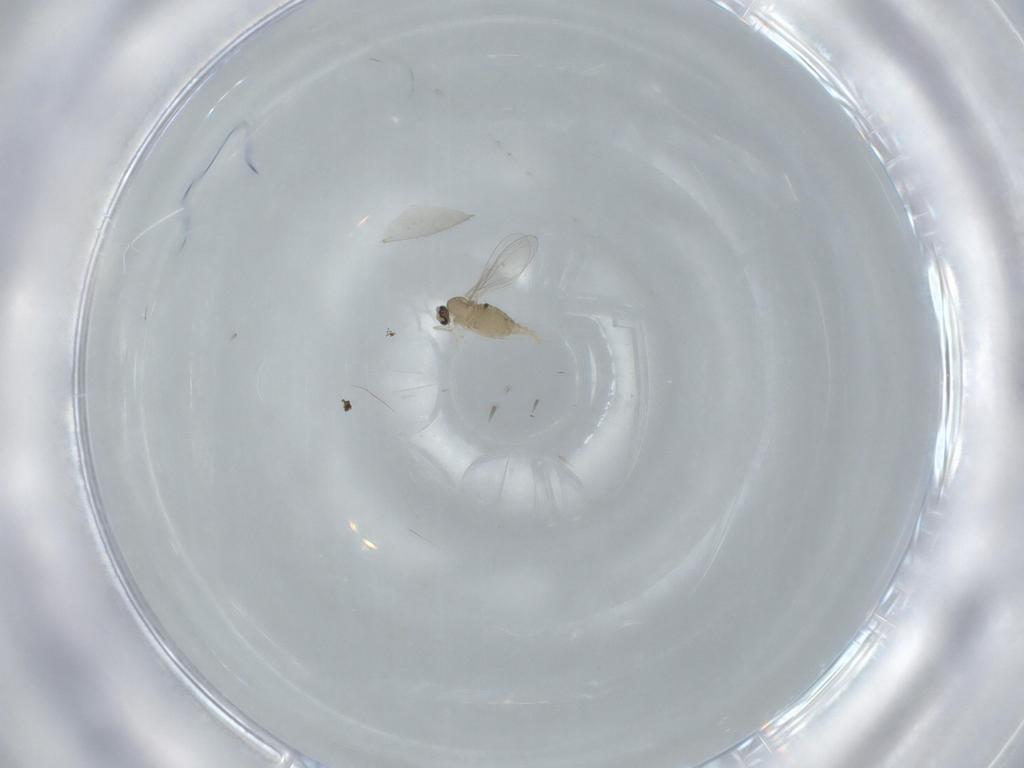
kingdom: Animalia
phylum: Arthropoda
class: Insecta
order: Diptera
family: Cecidomyiidae
